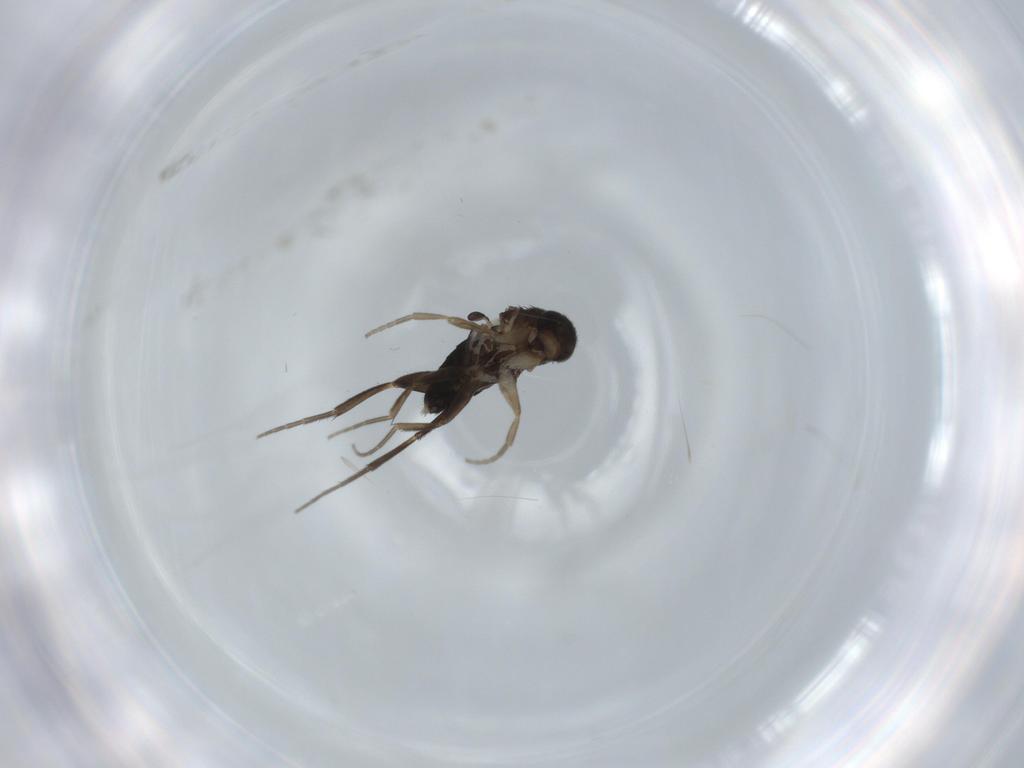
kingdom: Animalia
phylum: Arthropoda
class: Insecta
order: Diptera
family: Phoridae
